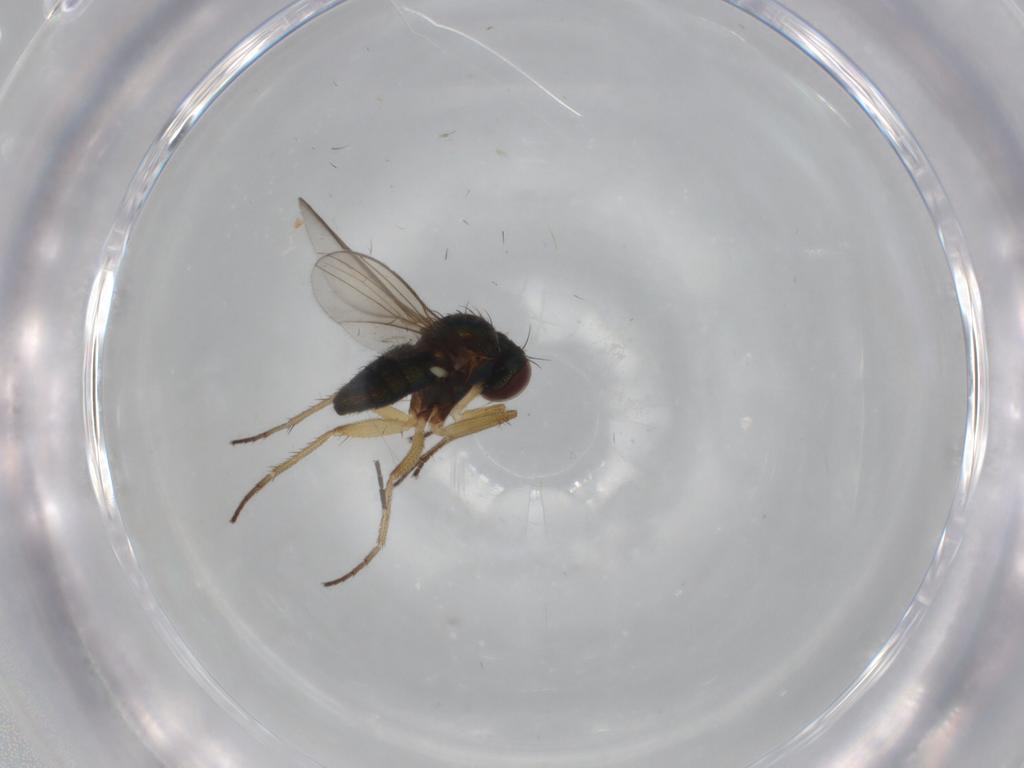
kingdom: Animalia
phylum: Arthropoda
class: Insecta
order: Diptera
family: Sciaridae
